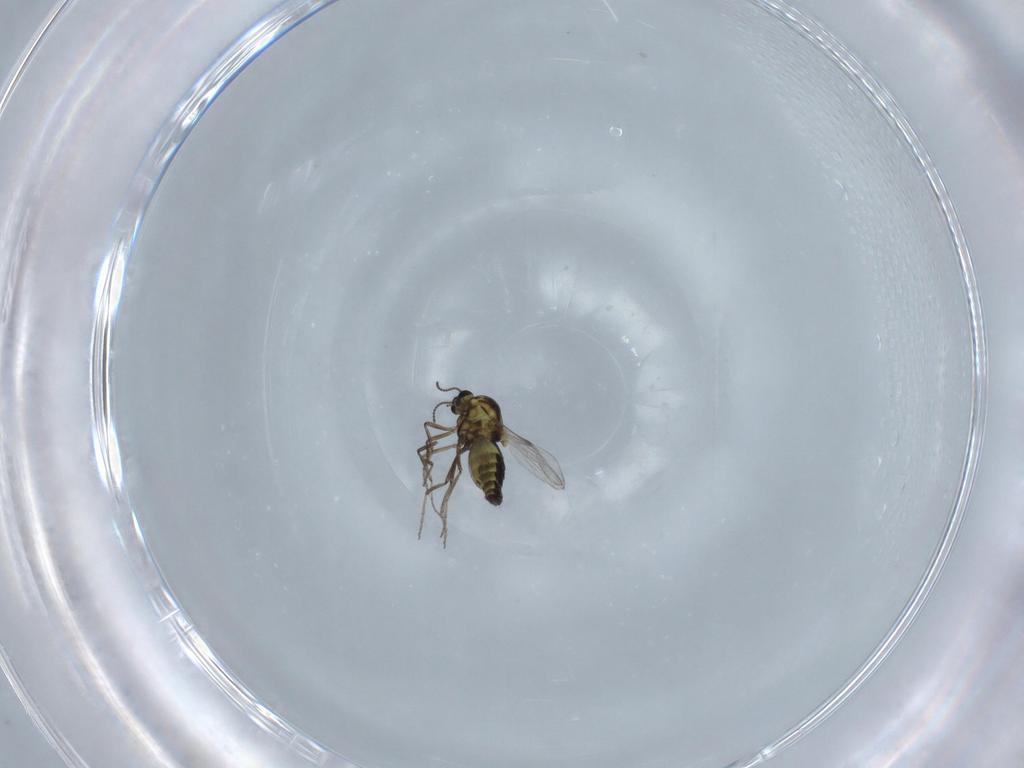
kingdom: Animalia
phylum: Arthropoda
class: Insecta
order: Diptera
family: Ceratopogonidae
